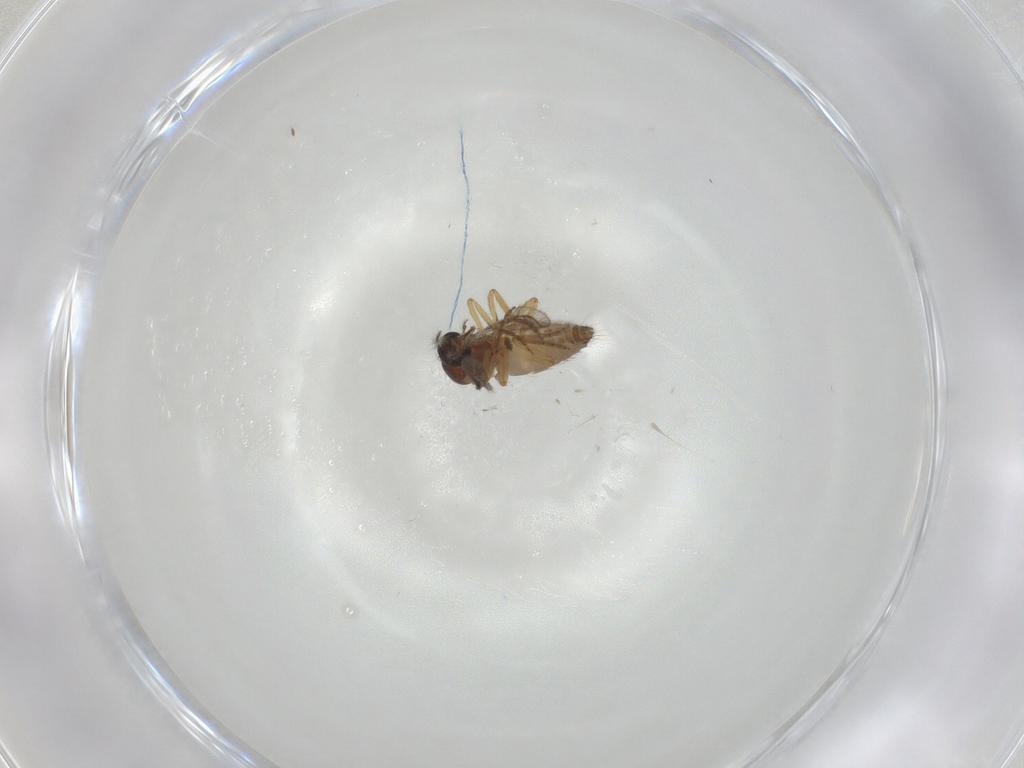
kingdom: Animalia
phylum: Arthropoda
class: Insecta
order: Diptera
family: Ceratopogonidae
